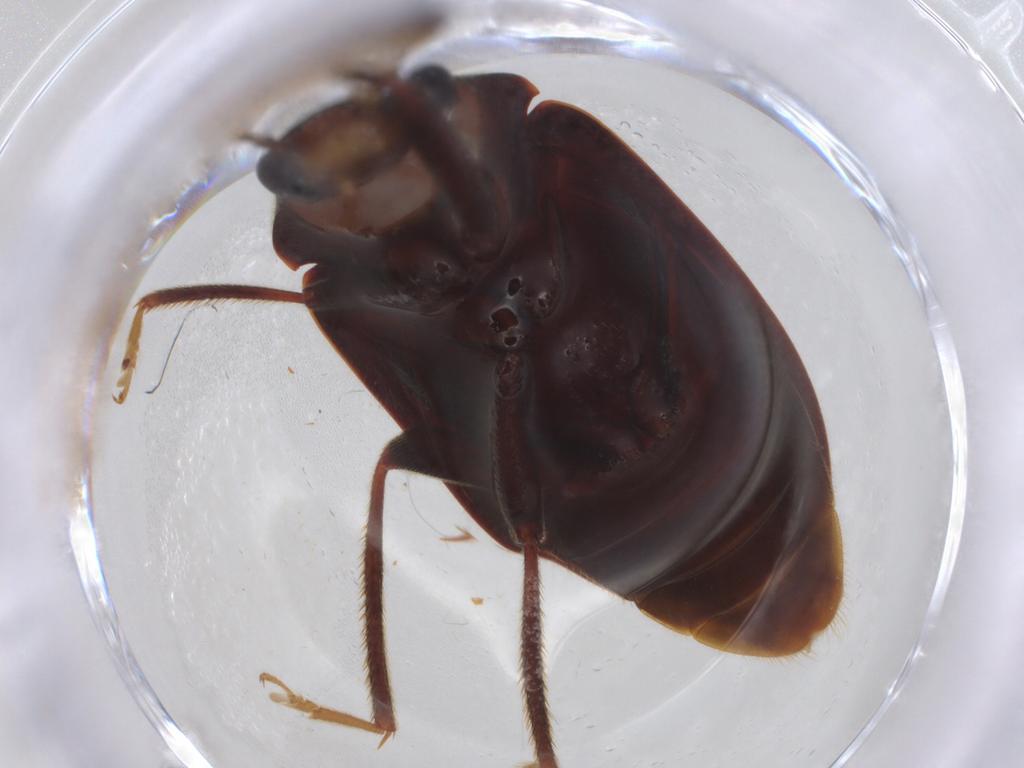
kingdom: Animalia
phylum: Arthropoda
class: Insecta
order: Coleoptera
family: Ptilodactylidae
